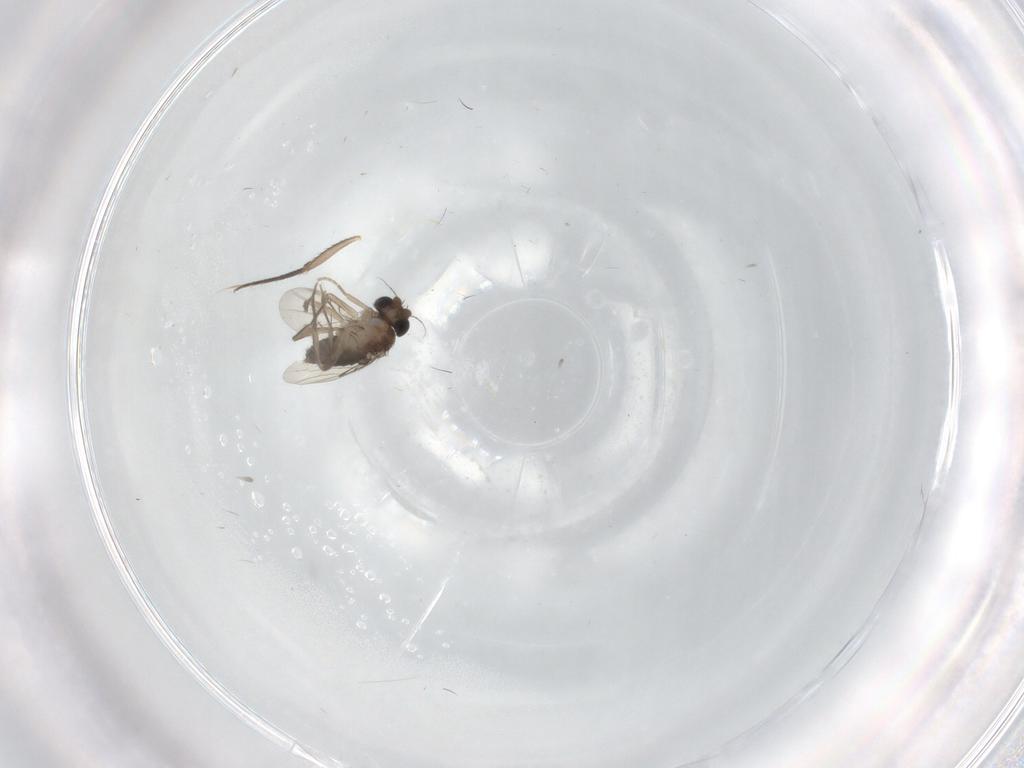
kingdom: Animalia
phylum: Arthropoda
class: Insecta
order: Diptera
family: Phoridae
